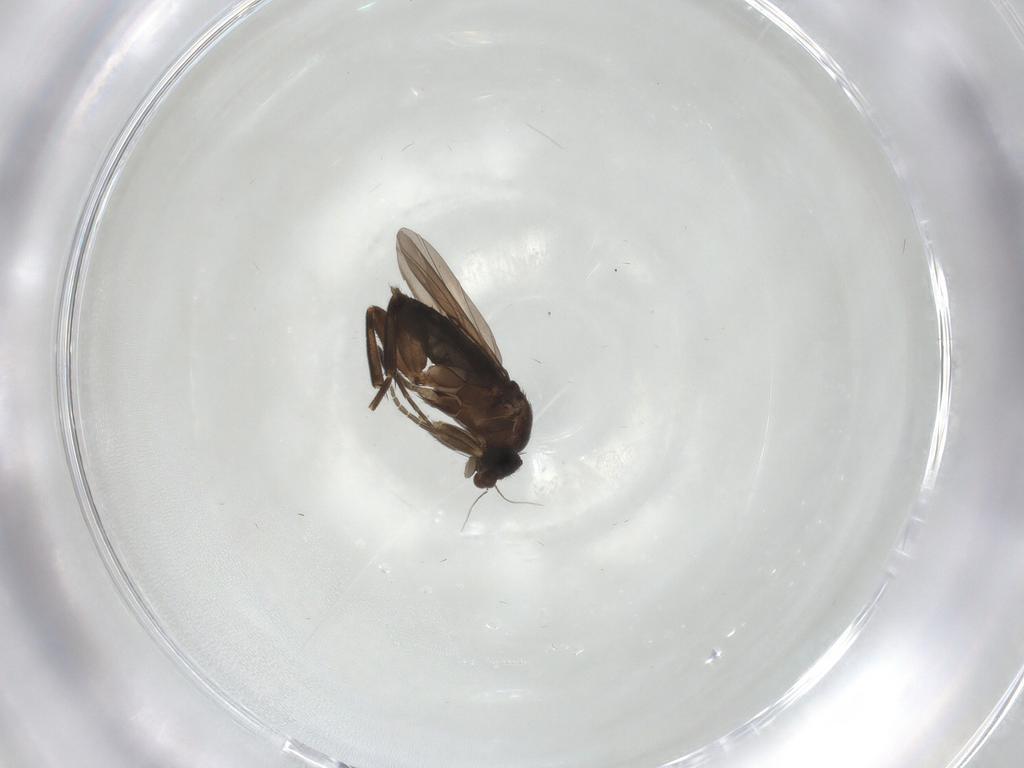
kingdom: Animalia
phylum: Arthropoda
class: Insecta
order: Diptera
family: Phoridae
